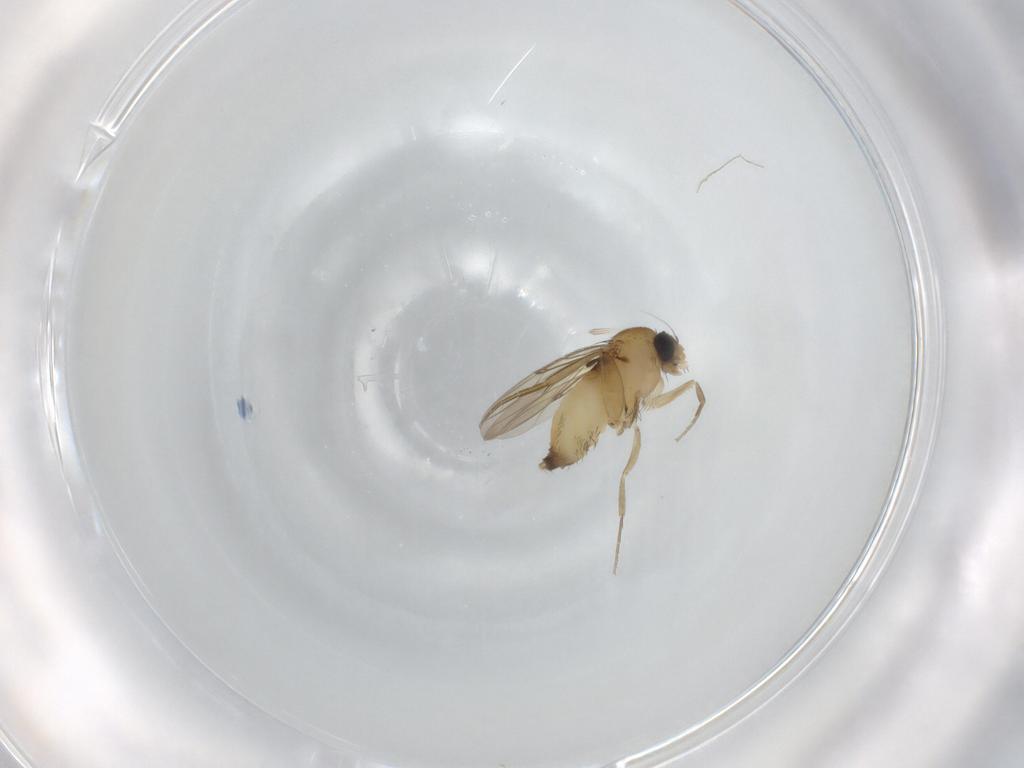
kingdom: Animalia
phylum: Arthropoda
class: Insecta
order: Diptera
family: Phoridae
